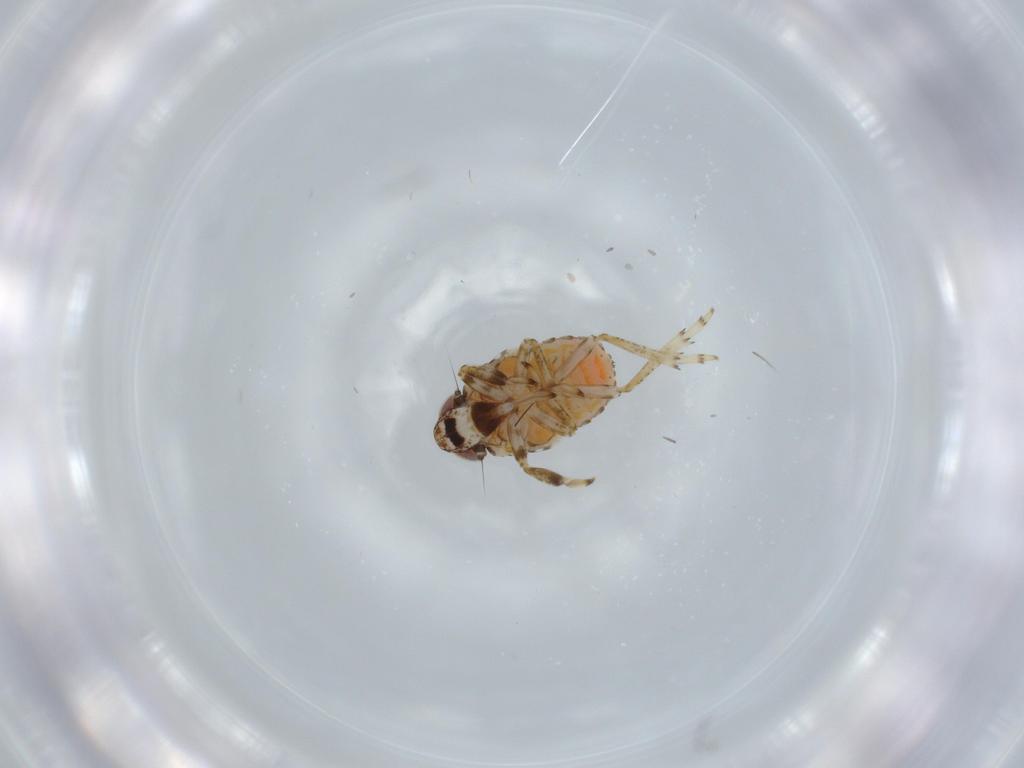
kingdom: Animalia
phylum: Arthropoda
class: Insecta
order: Hemiptera
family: Issidae
